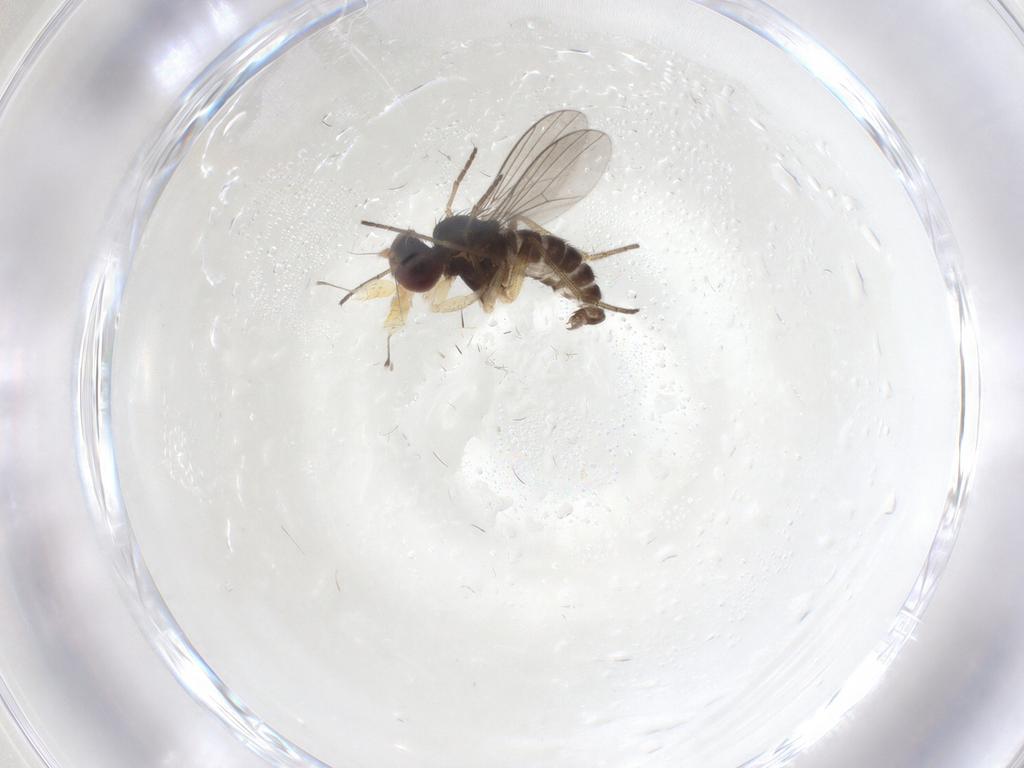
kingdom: Animalia
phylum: Arthropoda
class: Insecta
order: Diptera
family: Dolichopodidae
